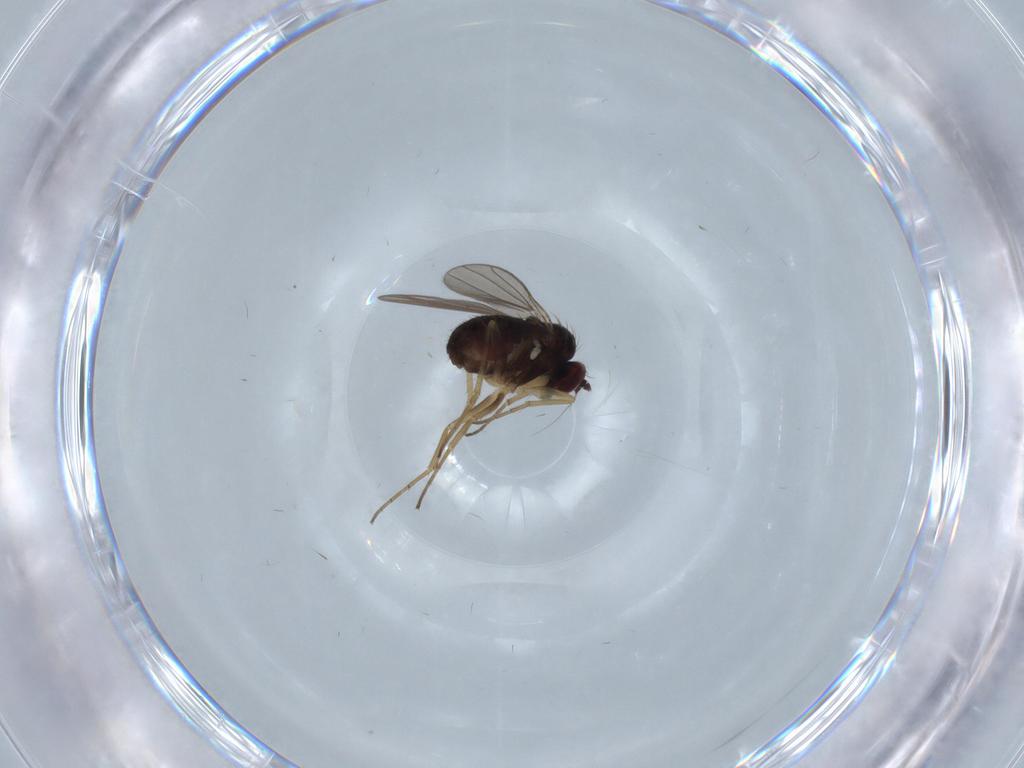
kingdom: Animalia
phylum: Arthropoda
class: Insecta
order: Diptera
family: Dolichopodidae
